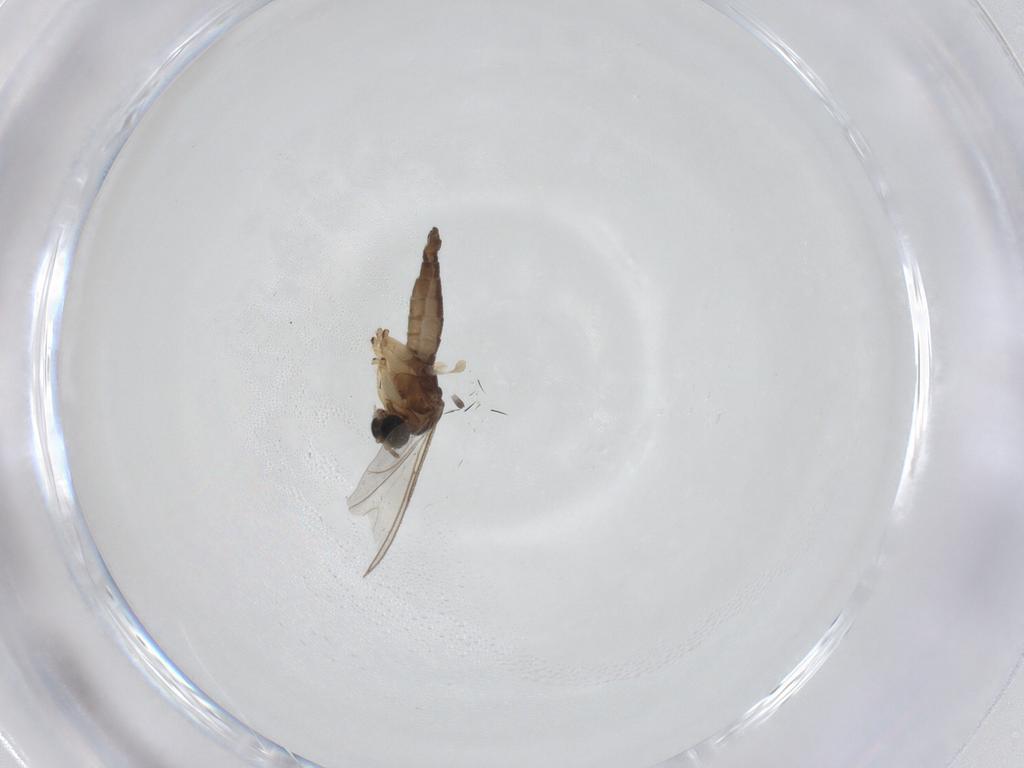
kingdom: Animalia
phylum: Arthropoda
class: Insecta
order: Diptera
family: Sciaridae
